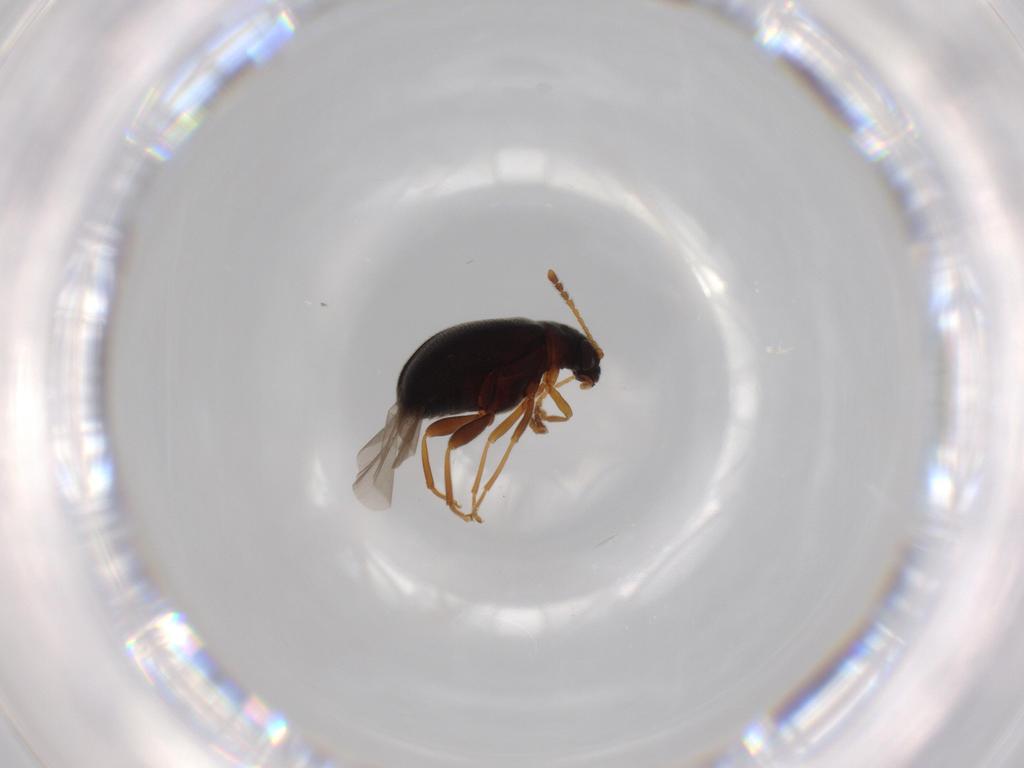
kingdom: Animalia
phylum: Arthropoda
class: Insecta
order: Coleoptera
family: Aderidae
